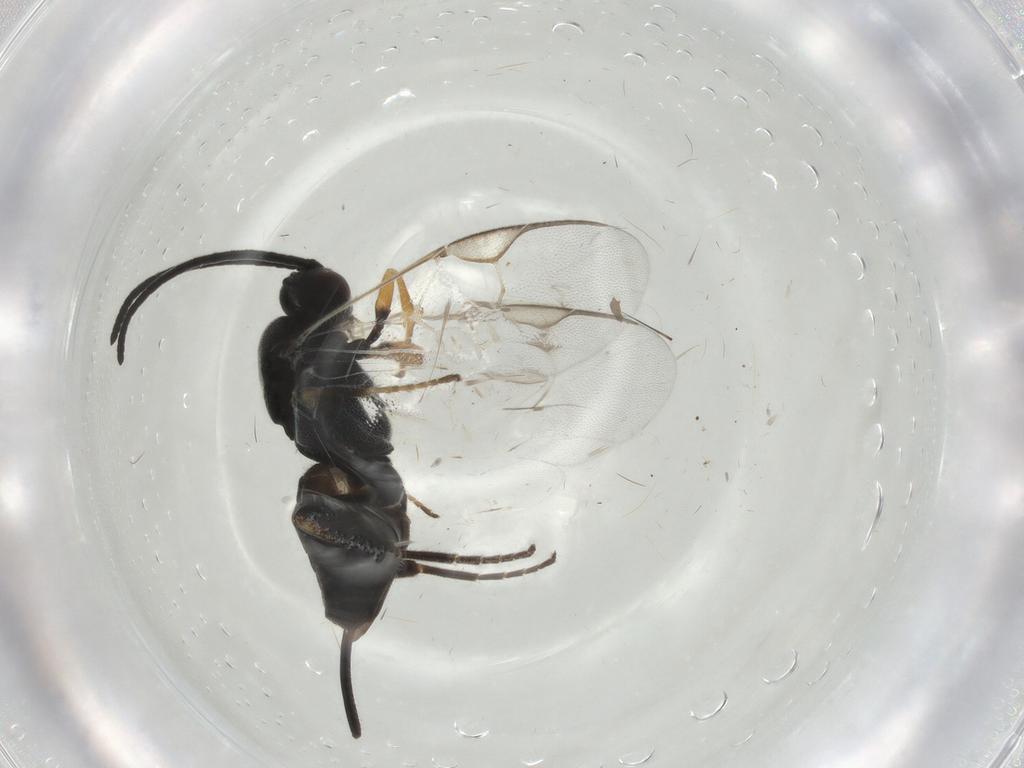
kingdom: Animalia
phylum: Arthropoda
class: Insecta
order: Hymenoptera
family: Braconidae
